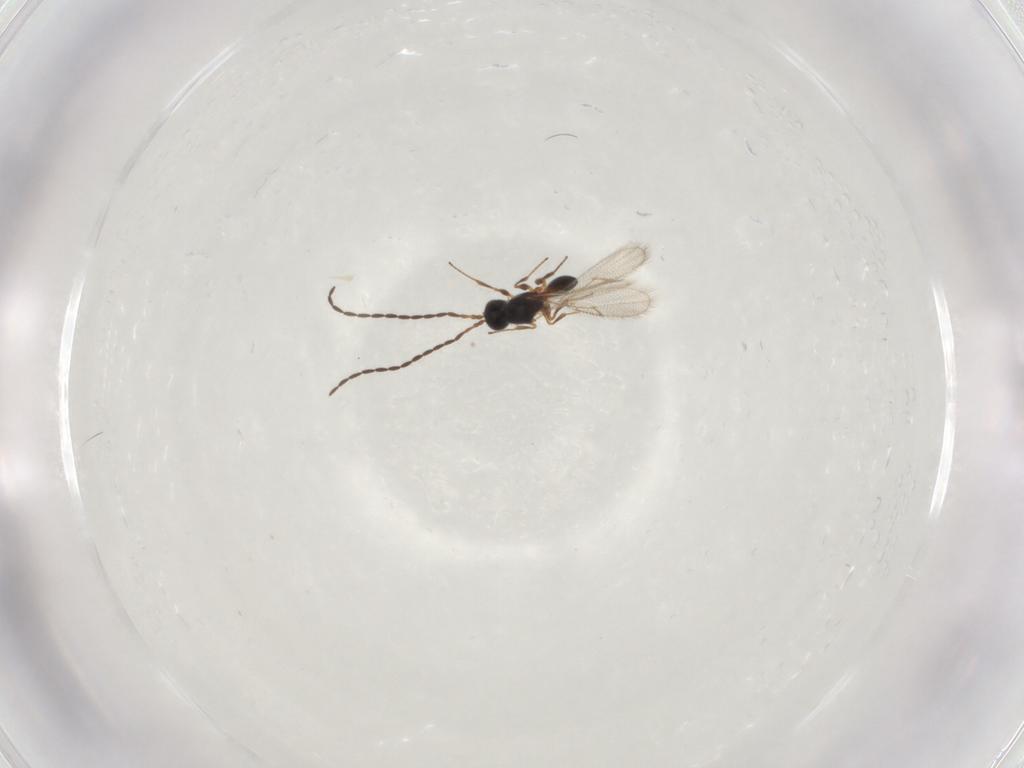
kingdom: Animalia
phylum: Arthropoda
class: Insecta
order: Hymenoptera
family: Figitidae
